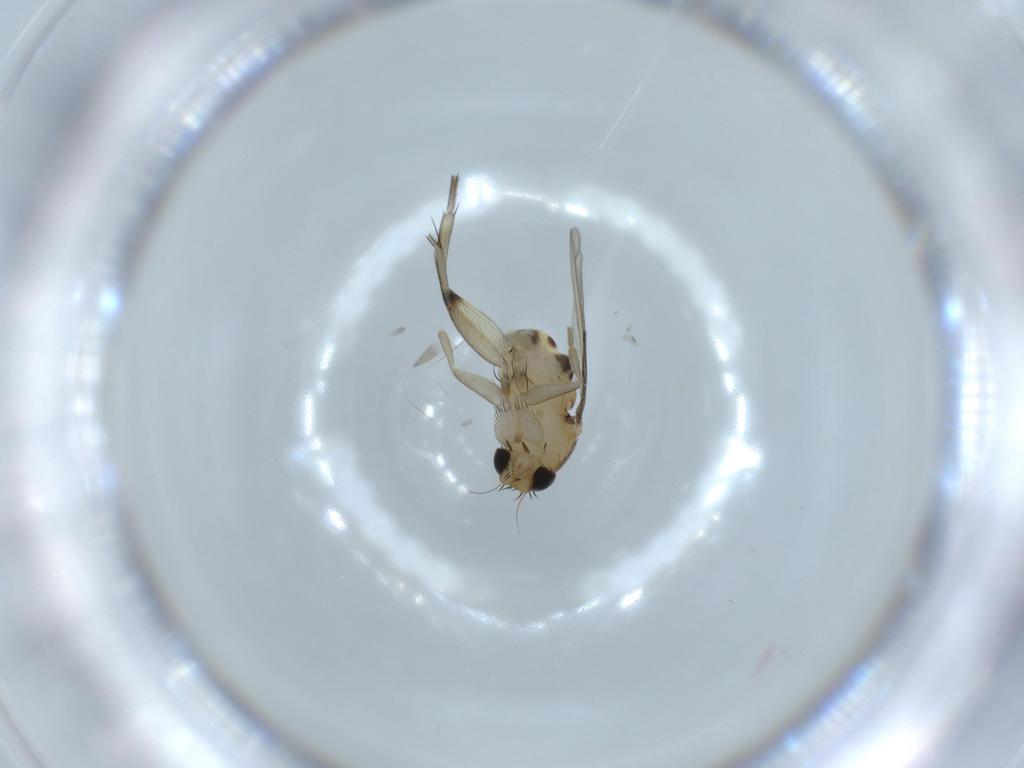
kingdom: Animalia
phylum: Arthropoda
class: Insecta
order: Diptera
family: Phoridae
